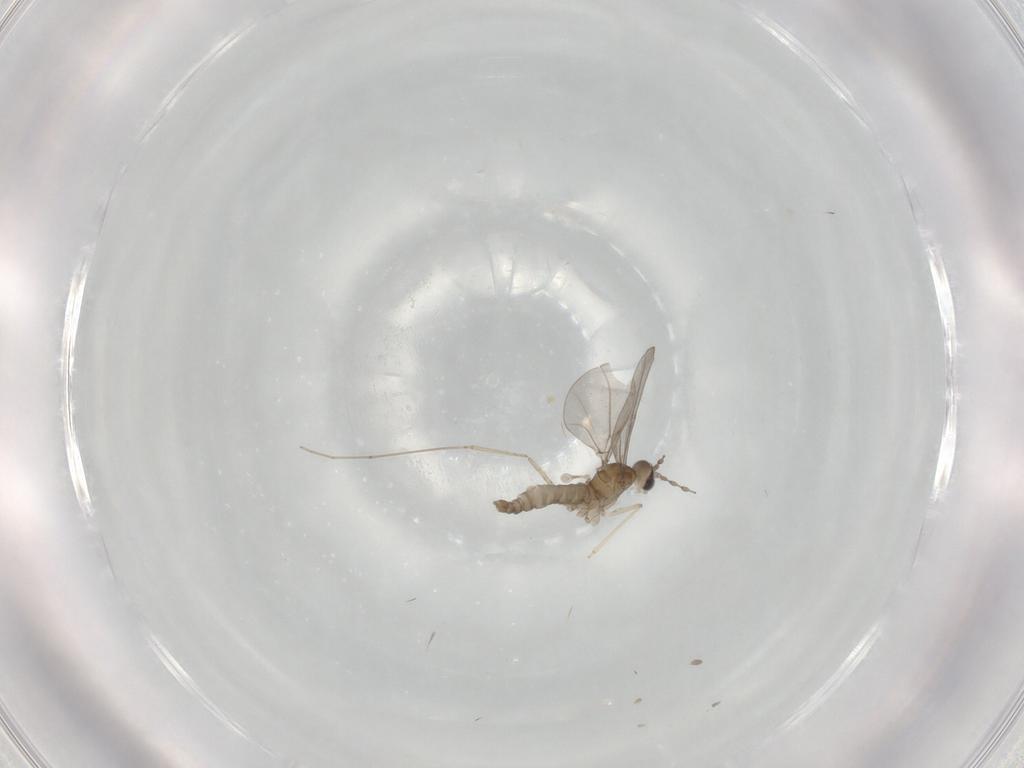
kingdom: Animalia
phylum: Arthropoda
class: Insecta
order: Diptera
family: Cecidomyiidae
